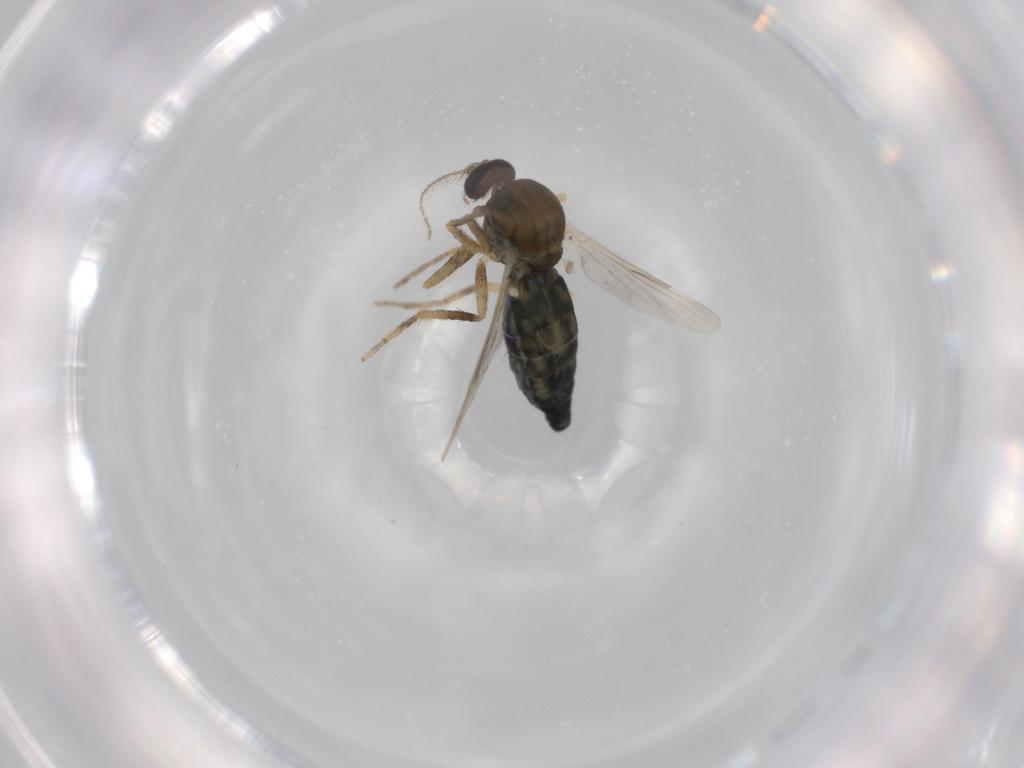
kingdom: Animalia
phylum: Arthropoda
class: Insecta
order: Diptera
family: Ceratopogonidae
